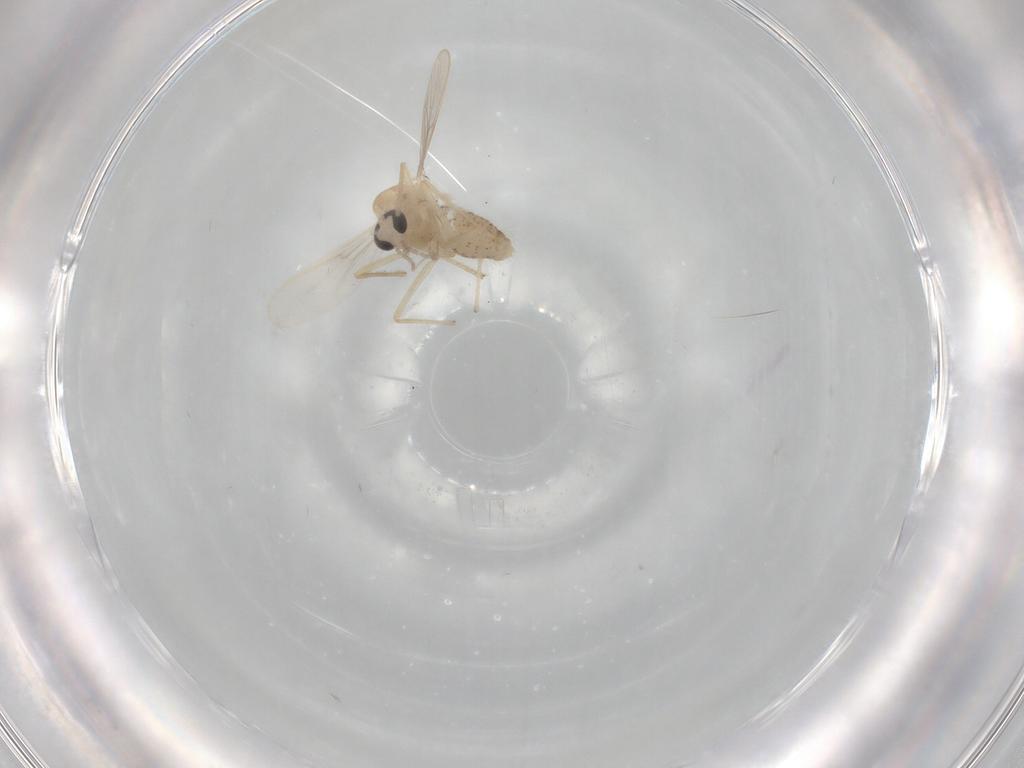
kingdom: Animalia
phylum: Arthropoda
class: Insecta
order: Diptera
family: Chironomidae
